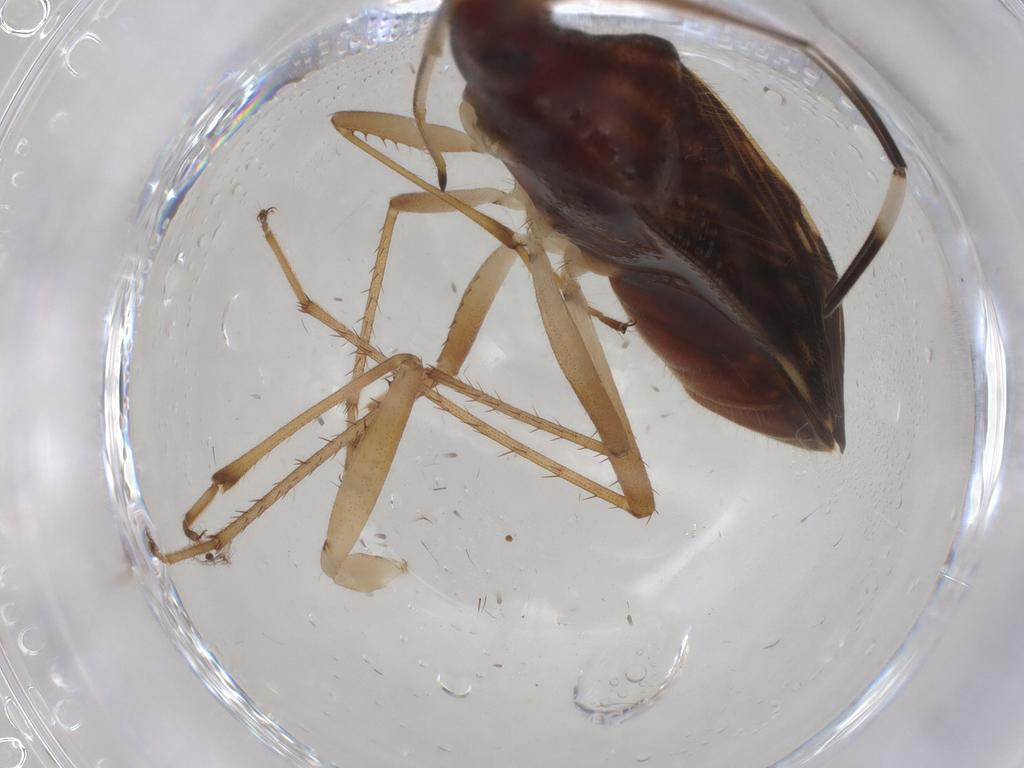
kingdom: Animalia
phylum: Arthropoda
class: Insecta
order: Hemiptera
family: Rhyparochromidae
